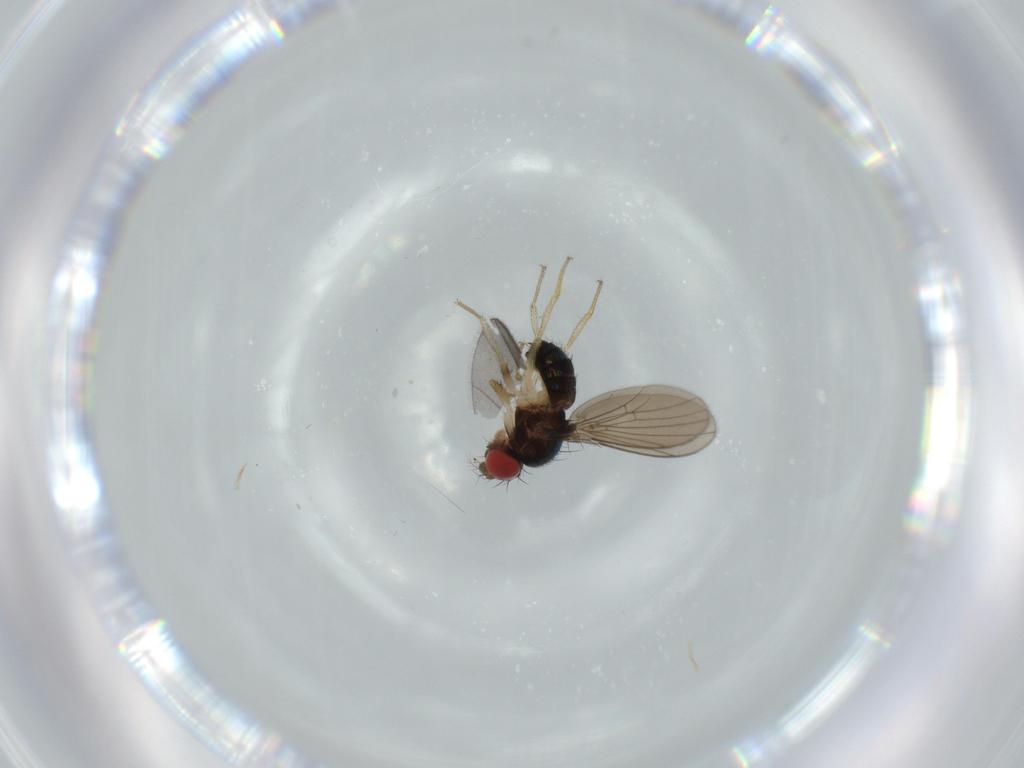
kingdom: Animalia
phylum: Arthropoda
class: Insecta
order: Diptera
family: Drosophilidae
